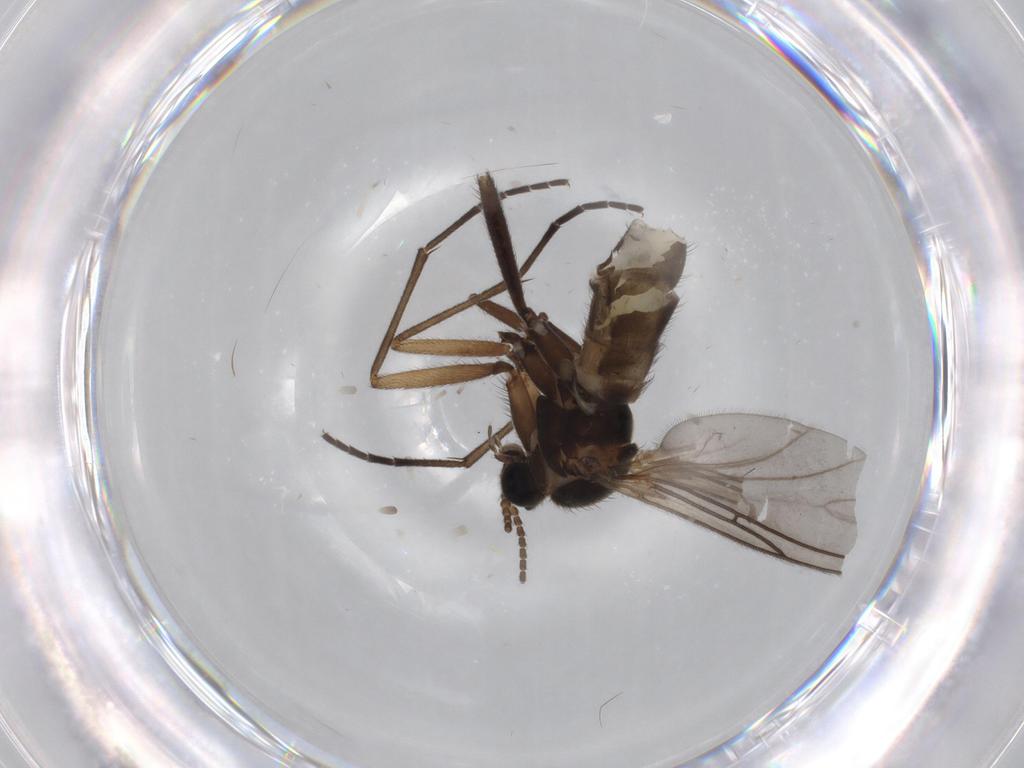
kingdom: Animalia
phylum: Arthropoda
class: Insecta
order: Diptera
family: Sciaridae
